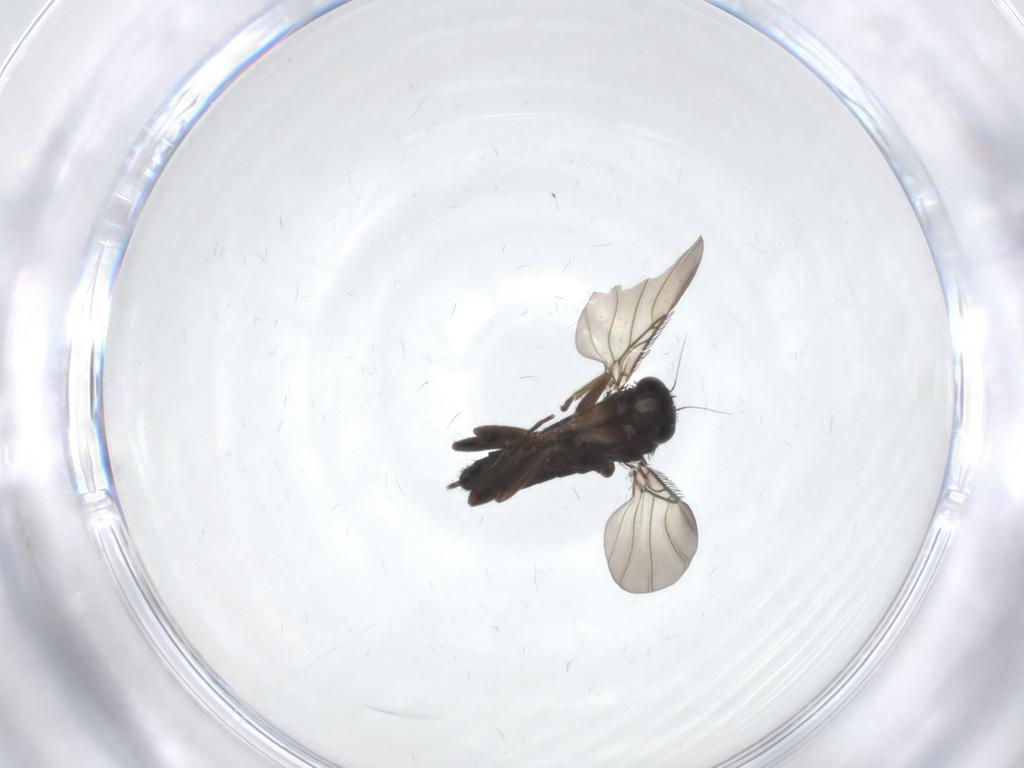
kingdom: Animalia
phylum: Arthropoda
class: Insecta
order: Diptera
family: Phoridae
